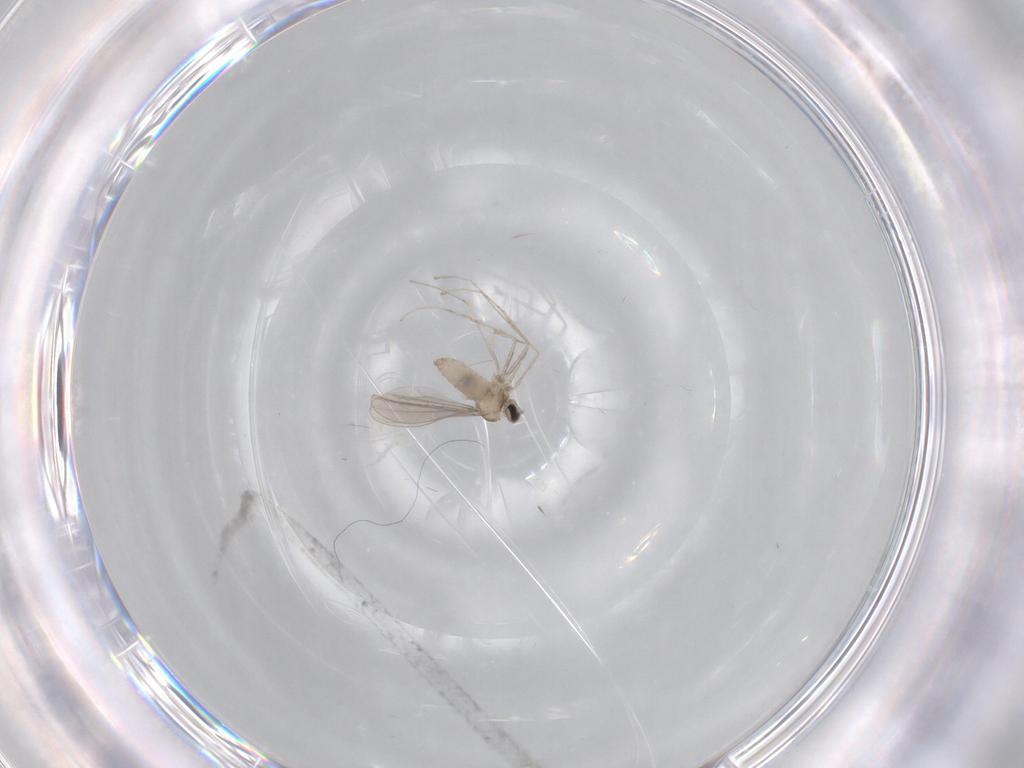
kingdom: Animalia
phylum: Arthropoda
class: Insecta
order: Diptera
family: Cecidomyiidae
